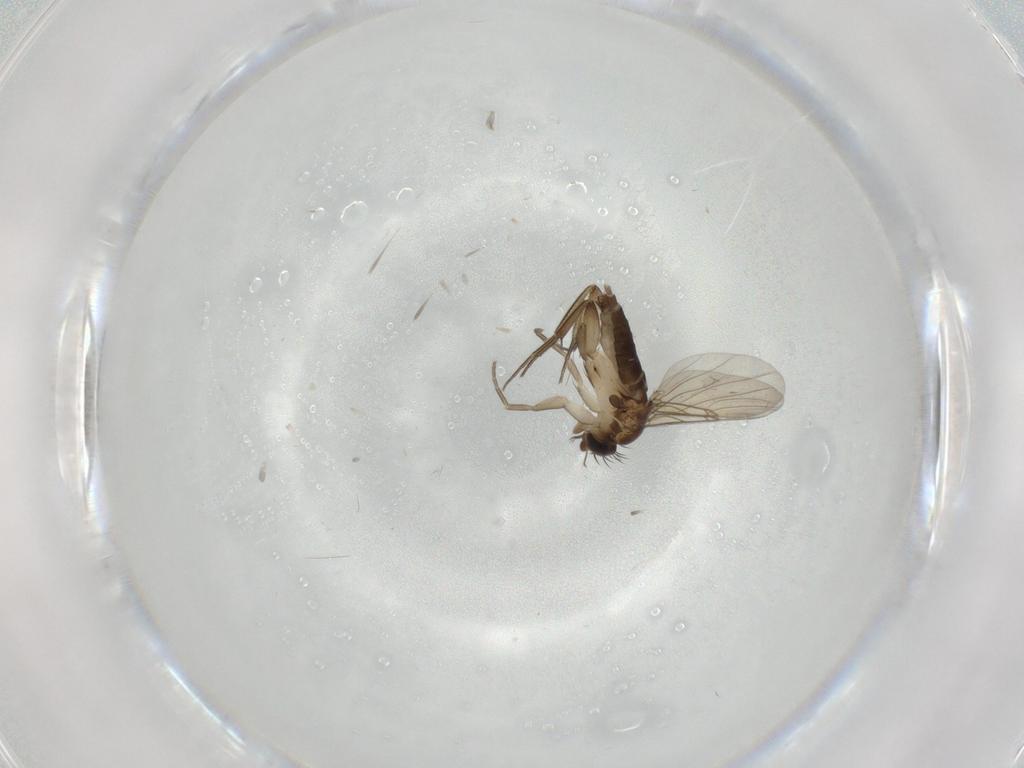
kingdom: Animalia
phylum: Arthropoda
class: Insecta
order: Diptera
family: Phoridae
